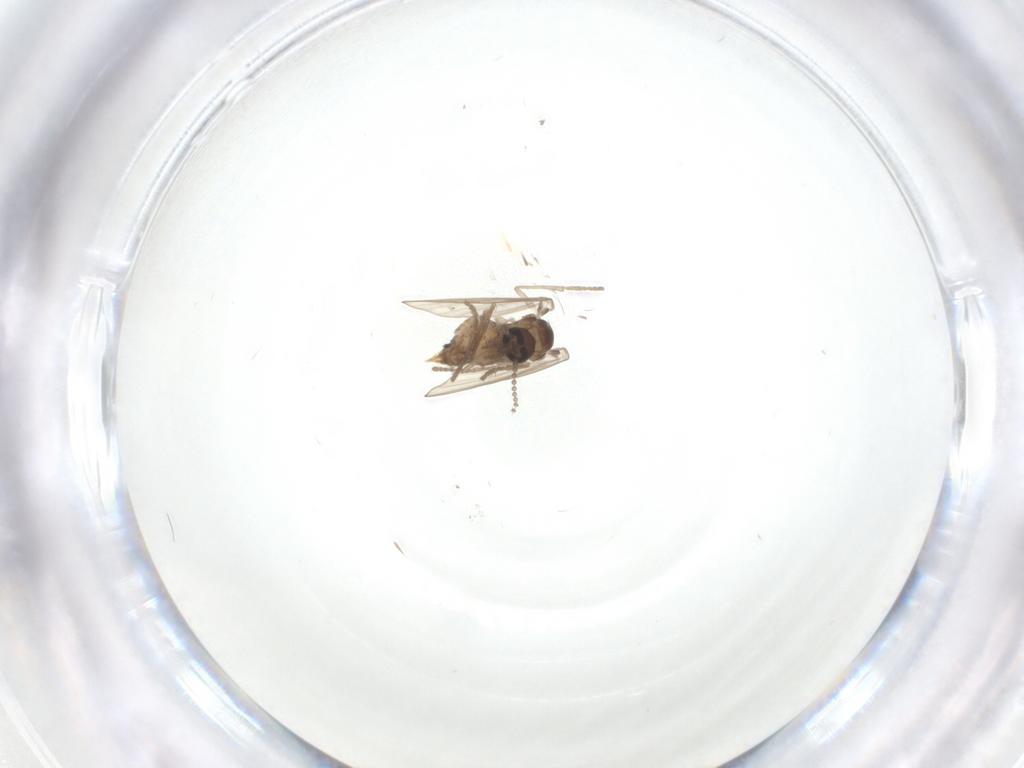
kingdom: Animalia
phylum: Arthropoda
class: Insecta
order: Diptera
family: Psychodidae
